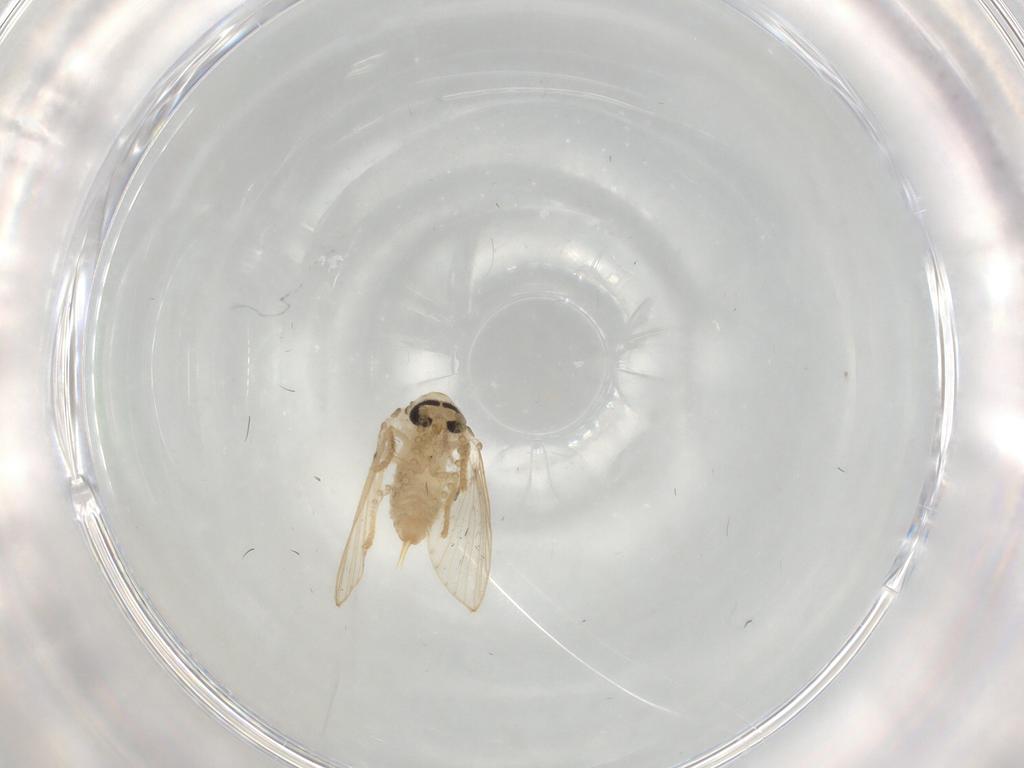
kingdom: Animalia
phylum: Arthropoda
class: Insecta
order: Diptera
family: Psychodidae
